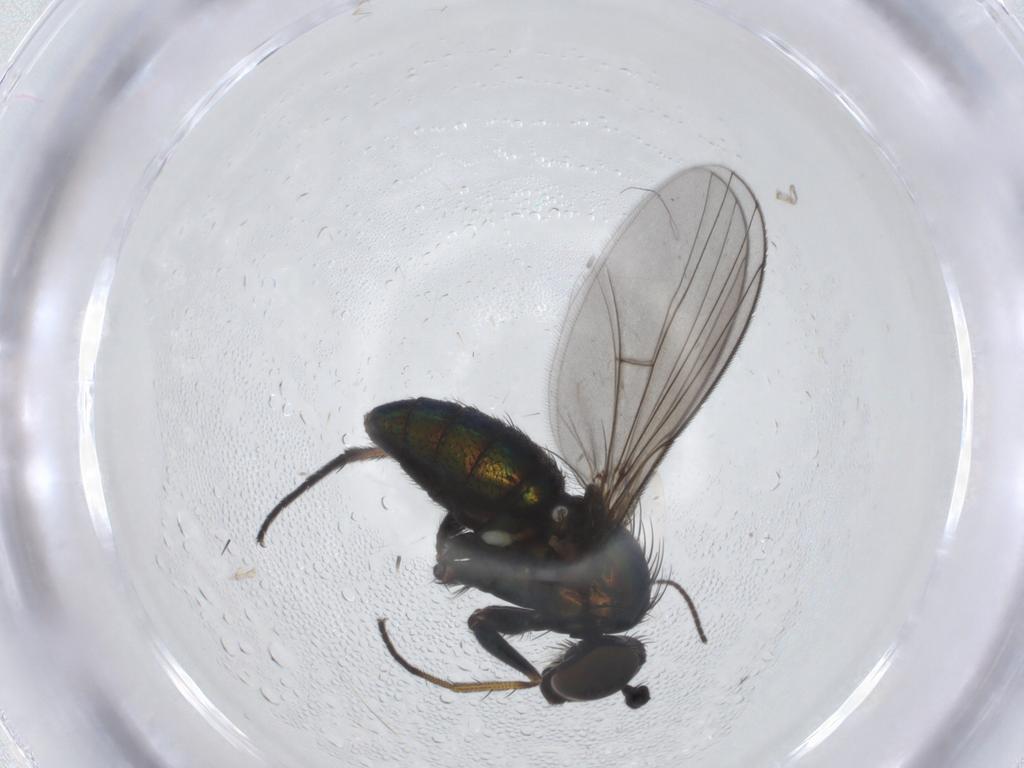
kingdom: Animalia
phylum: Arthropoda
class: Insecta
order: Diptera
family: Dolichopodidae
